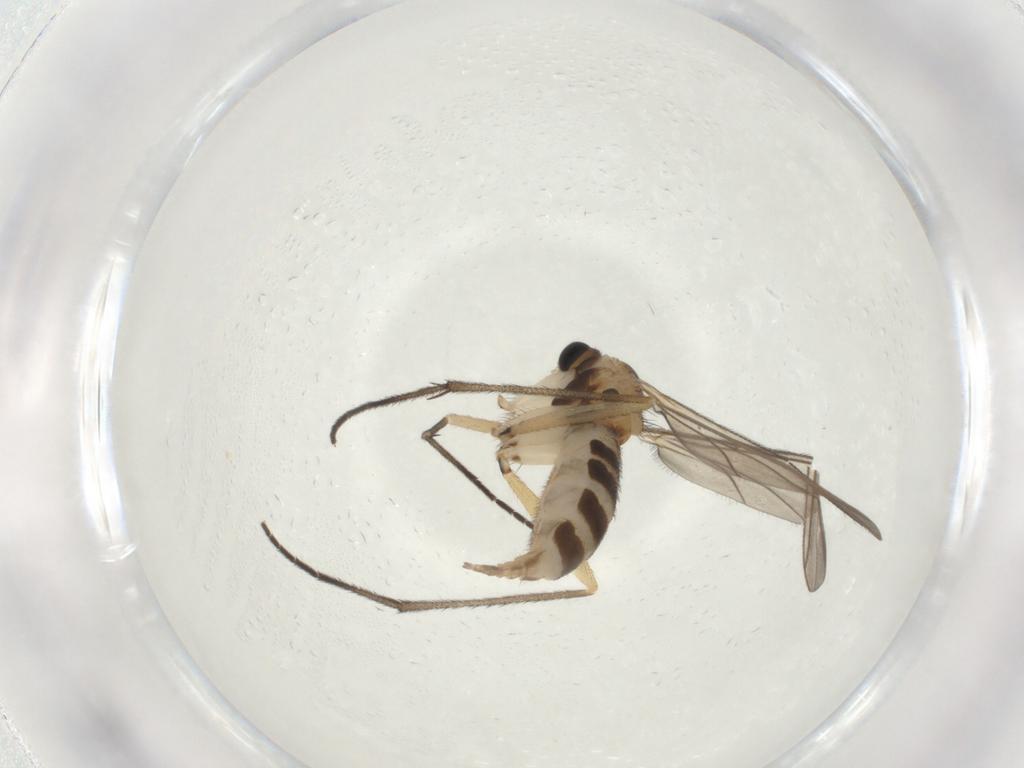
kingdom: Animalia
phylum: Arthropoda
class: Insecta
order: Diptera
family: Sciaridae
